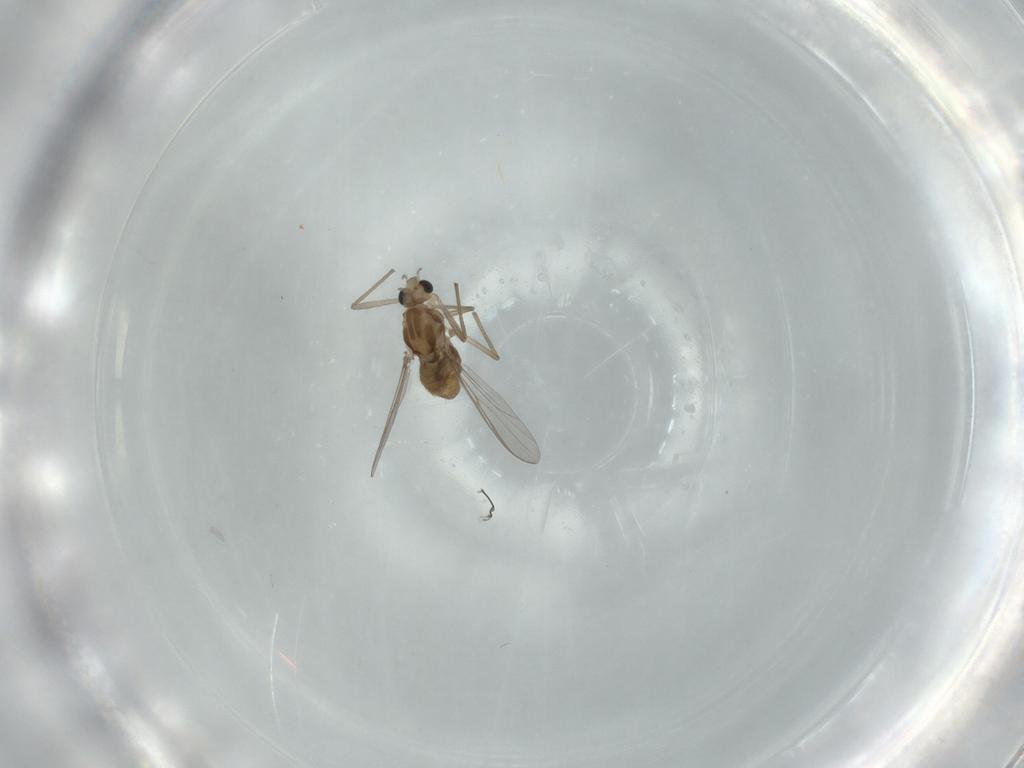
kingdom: Animalia
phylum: Arthropoda
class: Insecta
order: Diptera
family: Chironomidae
